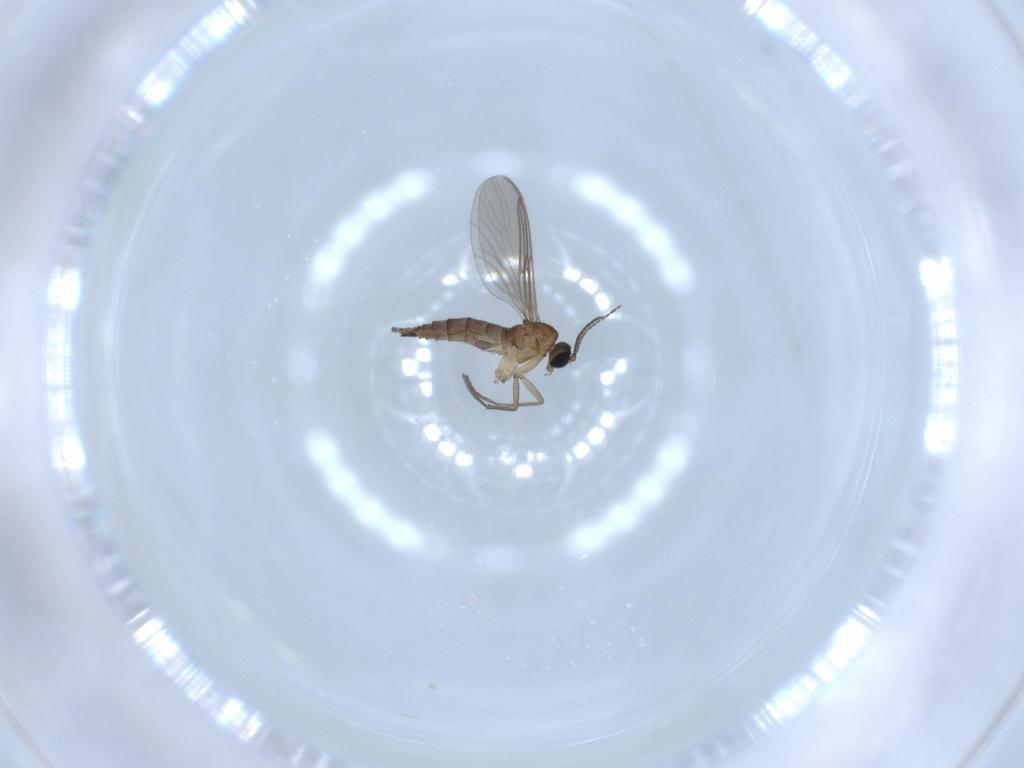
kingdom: Animalia
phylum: Arthropoda
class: Insecta
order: Diptera
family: Sciaridae
